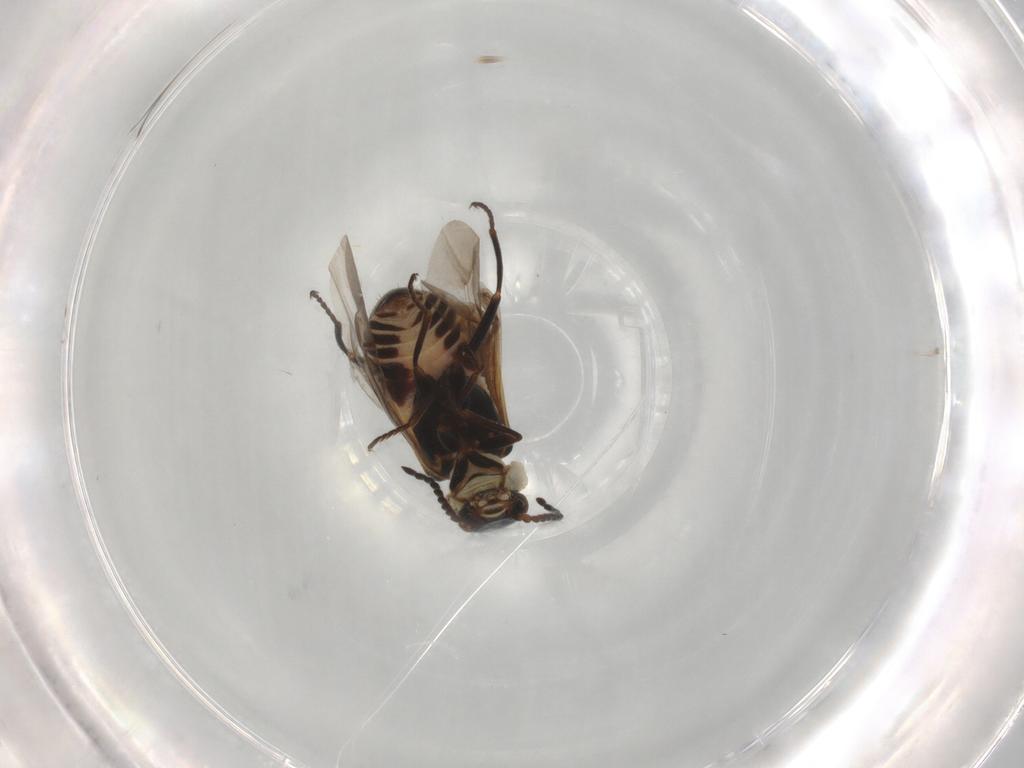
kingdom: Animalia
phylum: Arthropoda
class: Insecta
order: Coleoptera
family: Melyridae
